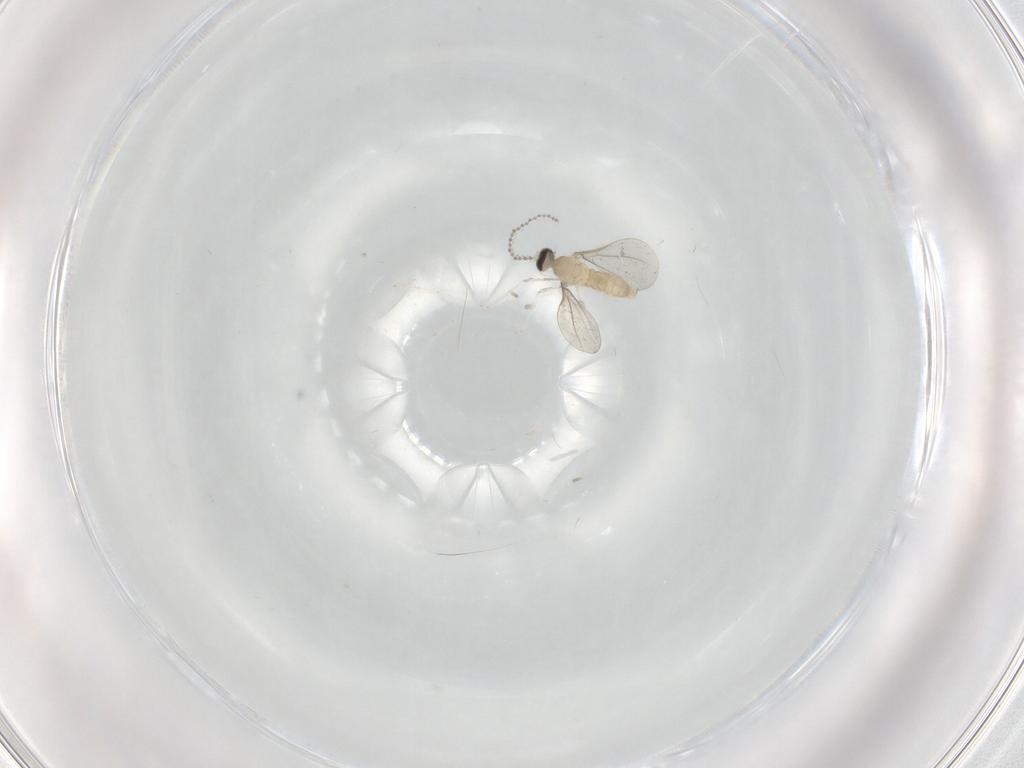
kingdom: Animalia
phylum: Arthropoda
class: Insecta
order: Diptera
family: Cecidomyiidae
